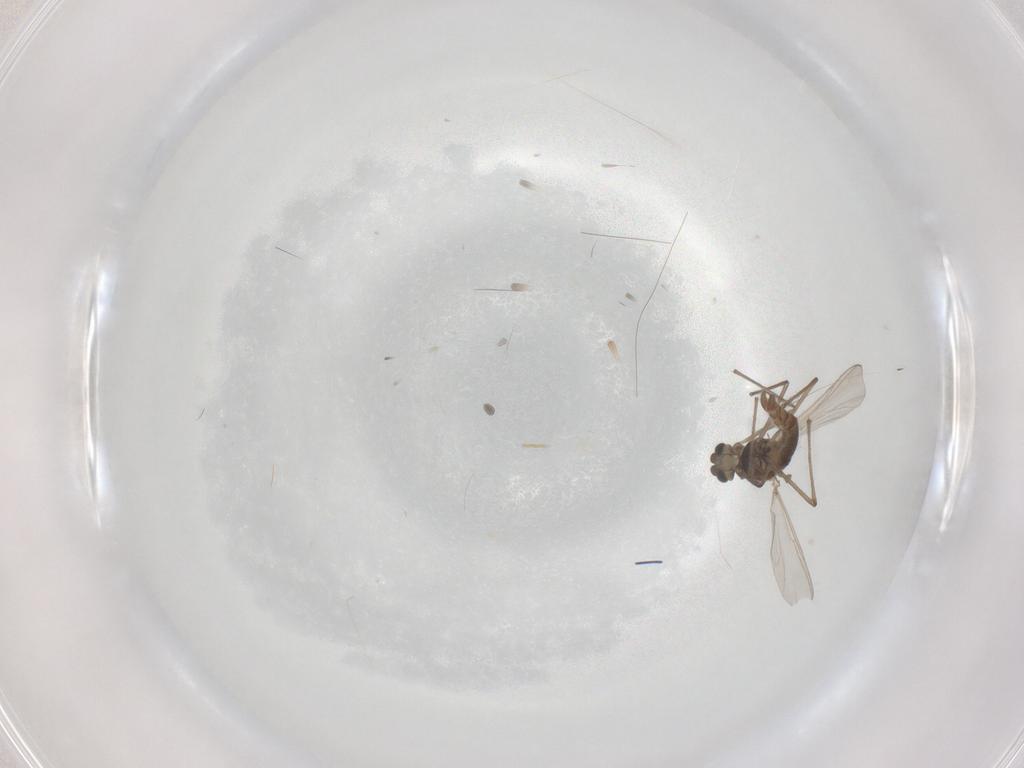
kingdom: Animalia
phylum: Arthropoda
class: Insecta
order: Diptera
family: Chironomidae
